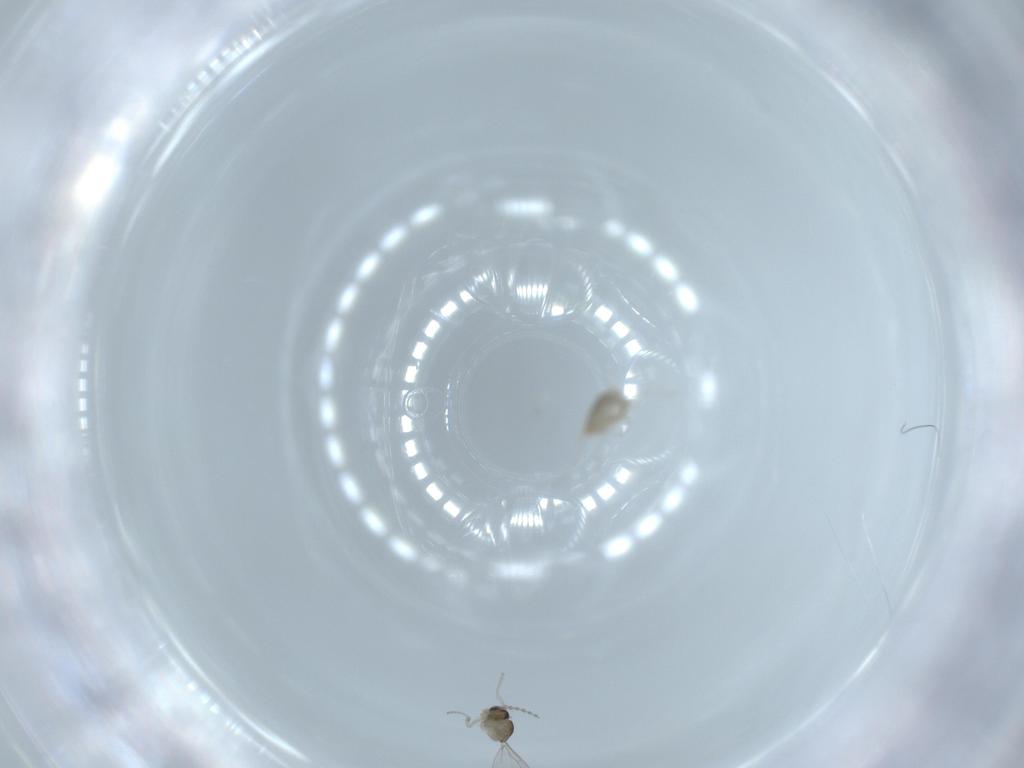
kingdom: Animalia
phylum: Arthropoda
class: Insecta
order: Diptera
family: Cecidomyiidae
